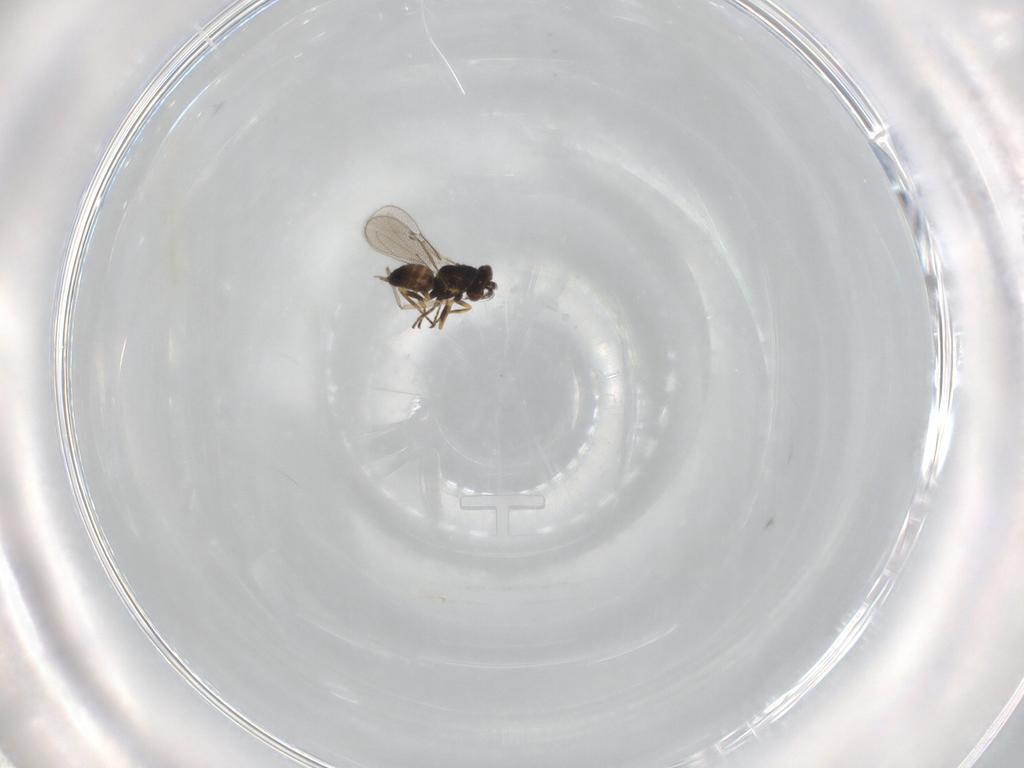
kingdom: Animalia
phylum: Arthropoda
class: Insecta
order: Hymenoptera
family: Eulophidae
